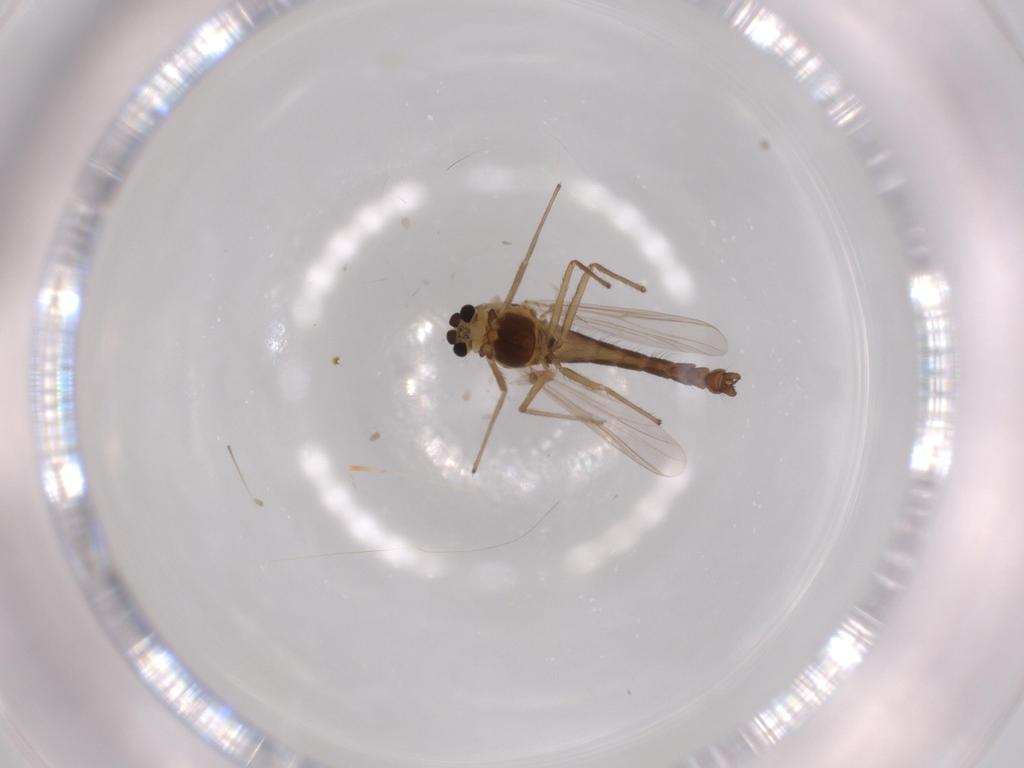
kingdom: Animalia
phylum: Arthropoda
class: Insecta
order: Diptera
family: Chironomidae
